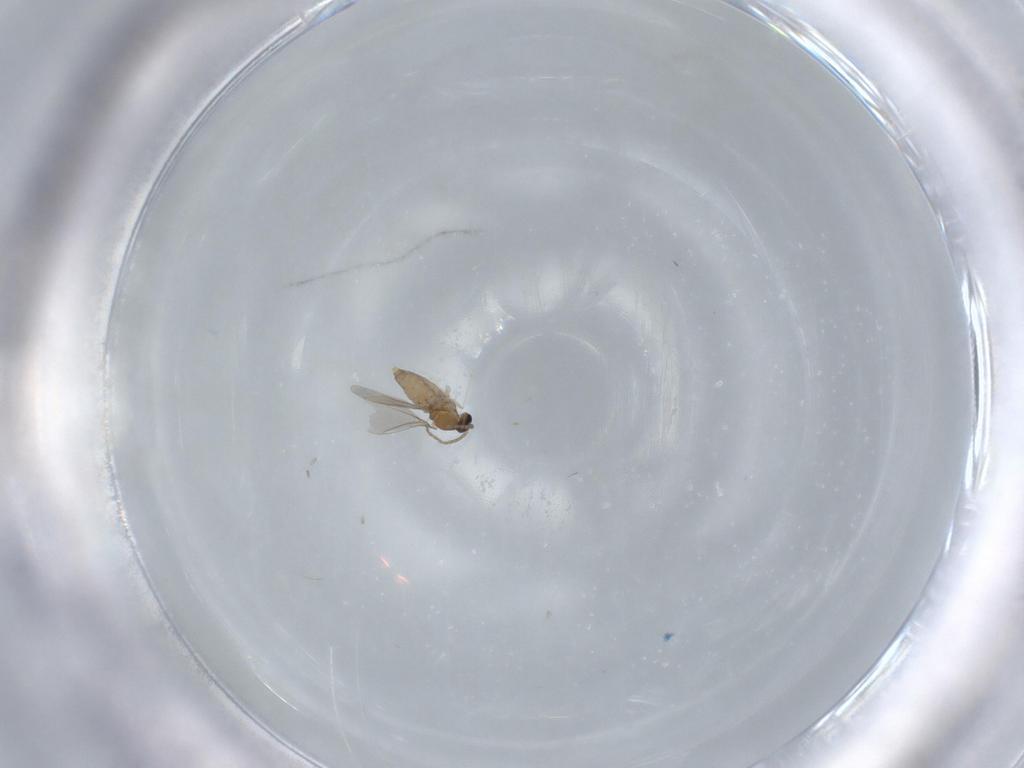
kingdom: Animalia
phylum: Arthropoda
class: Insecta
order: Diptera
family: Cecidomyiidae
